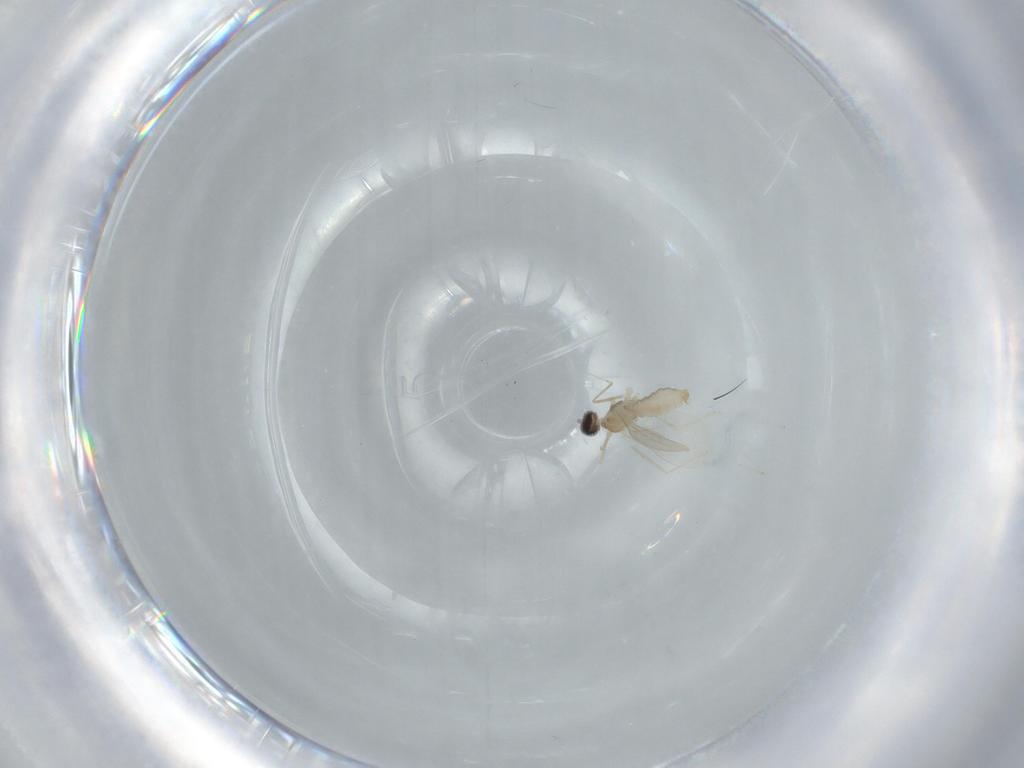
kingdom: Animalia
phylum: Arthropoda
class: Insecta
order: Diptera
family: Cecidomyiidae
